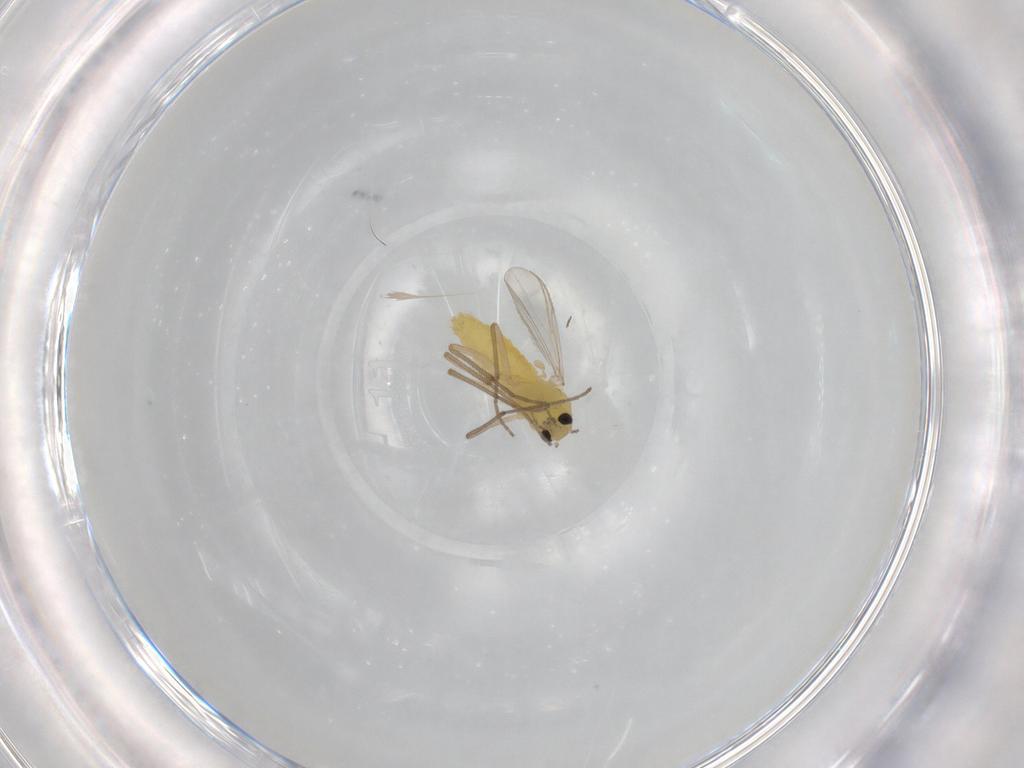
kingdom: Animalia
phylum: Arthropoda
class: Insecta
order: Diptera
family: Chironomidae
